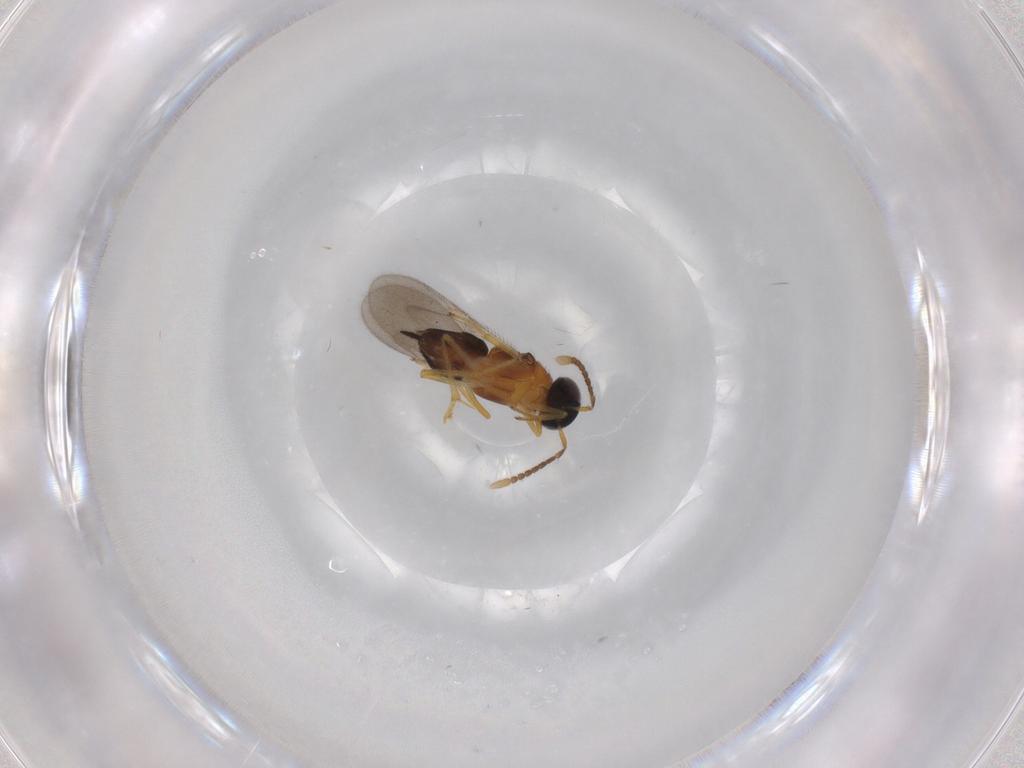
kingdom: Animalia
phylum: Arthropoda
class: Insecta
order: Hymenoptera
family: Encyrtidae
